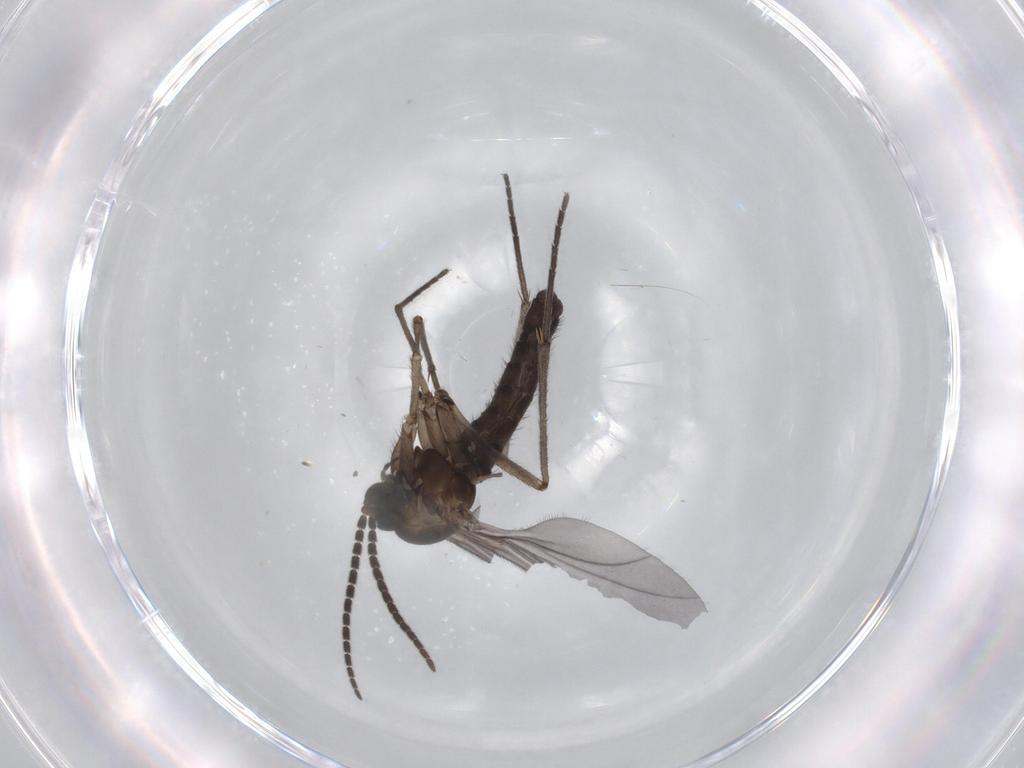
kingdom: Animalia
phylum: Arthropoda
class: Insecta
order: Diptera
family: Sciaridae
